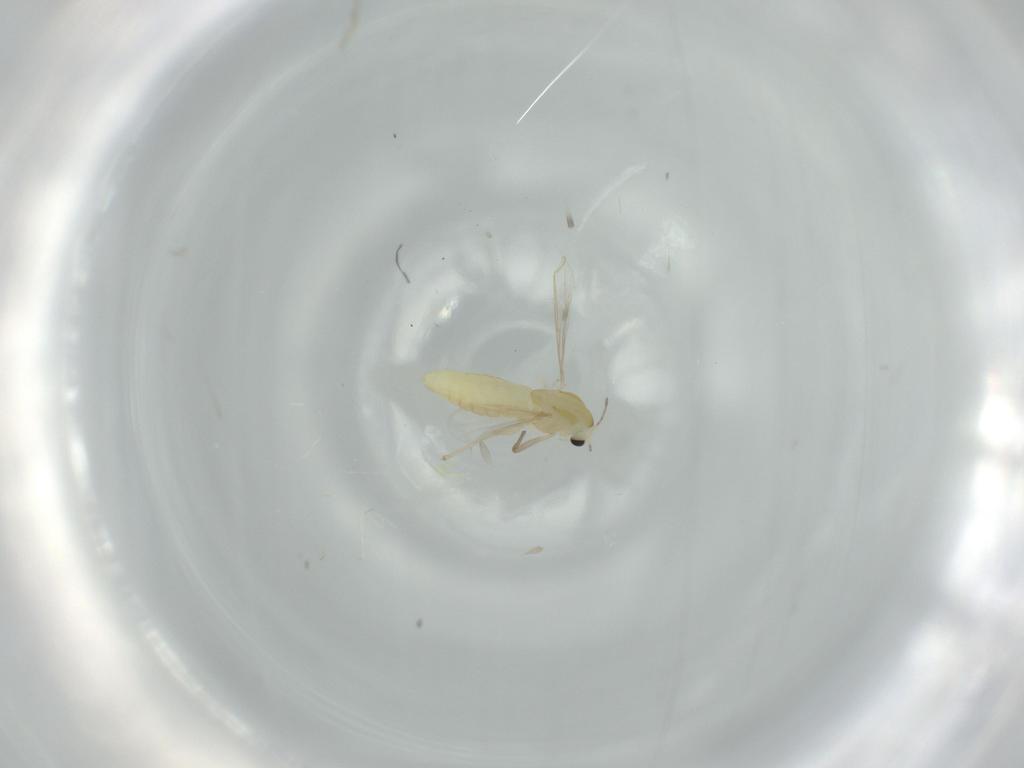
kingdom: Animalia
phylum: Arthropoda
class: Insecta
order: Diptera
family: Chironomidae
